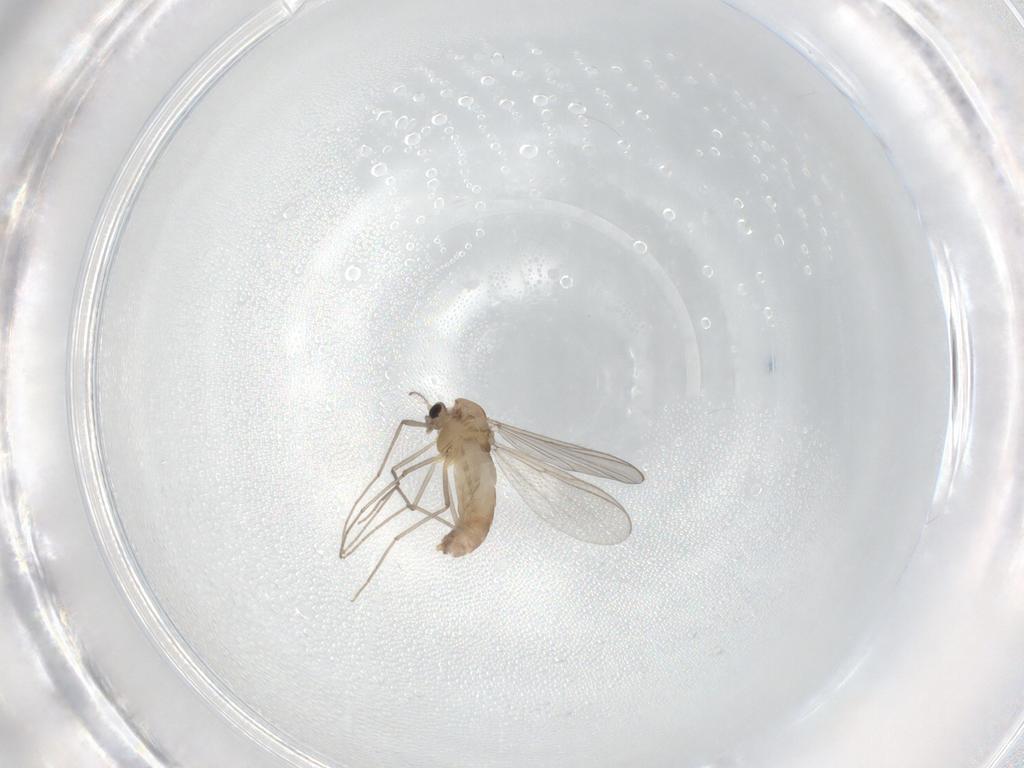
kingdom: Animalia
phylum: Arthropoda
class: Insecta
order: Diptera
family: Chironomidae
